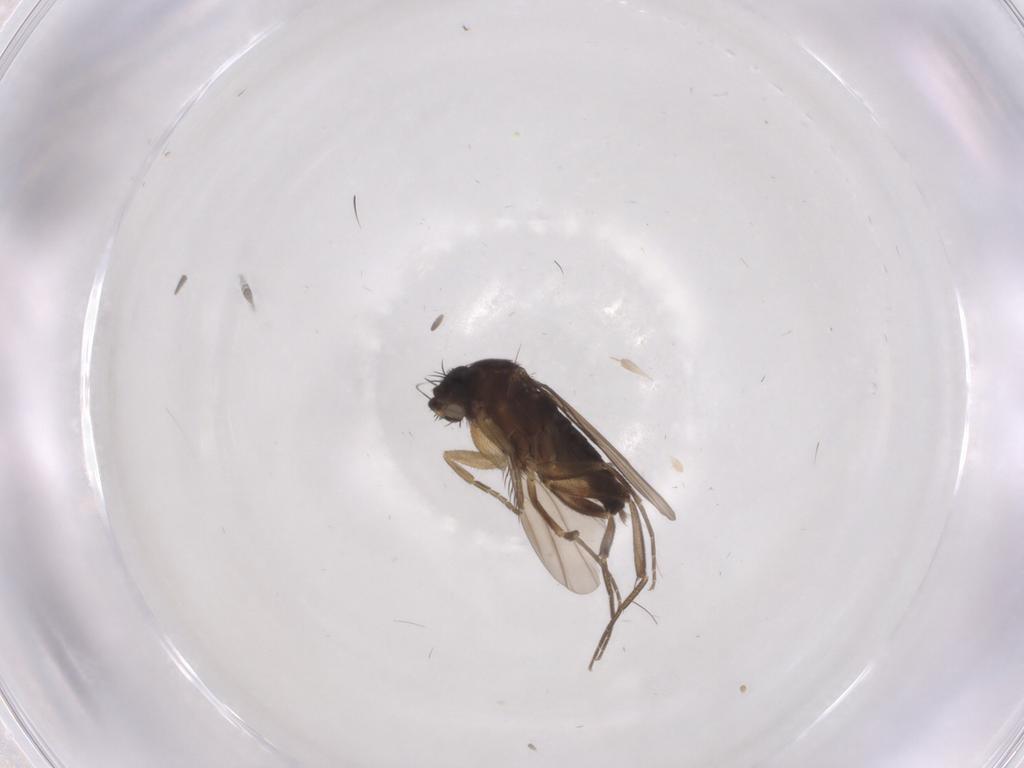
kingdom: Animalia
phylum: Arthropoda
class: Insecta
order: Diptera
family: Phoridae
